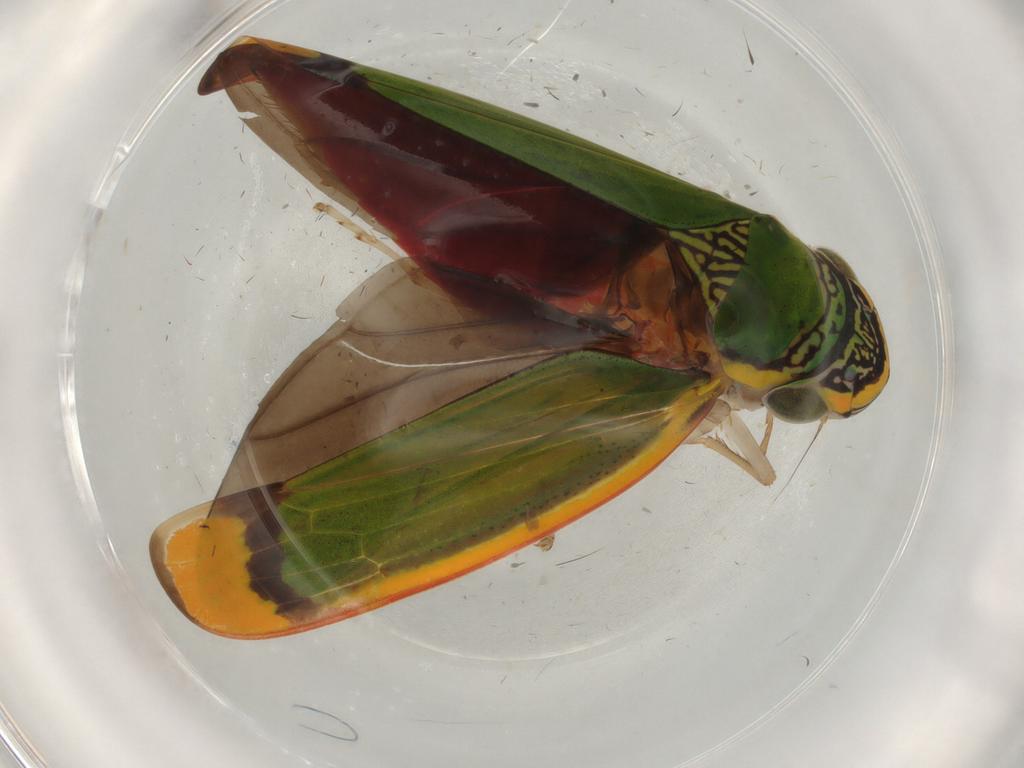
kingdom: Animalia
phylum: Arthropoda
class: Insecta
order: Hemiptera
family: Cicadellidae
